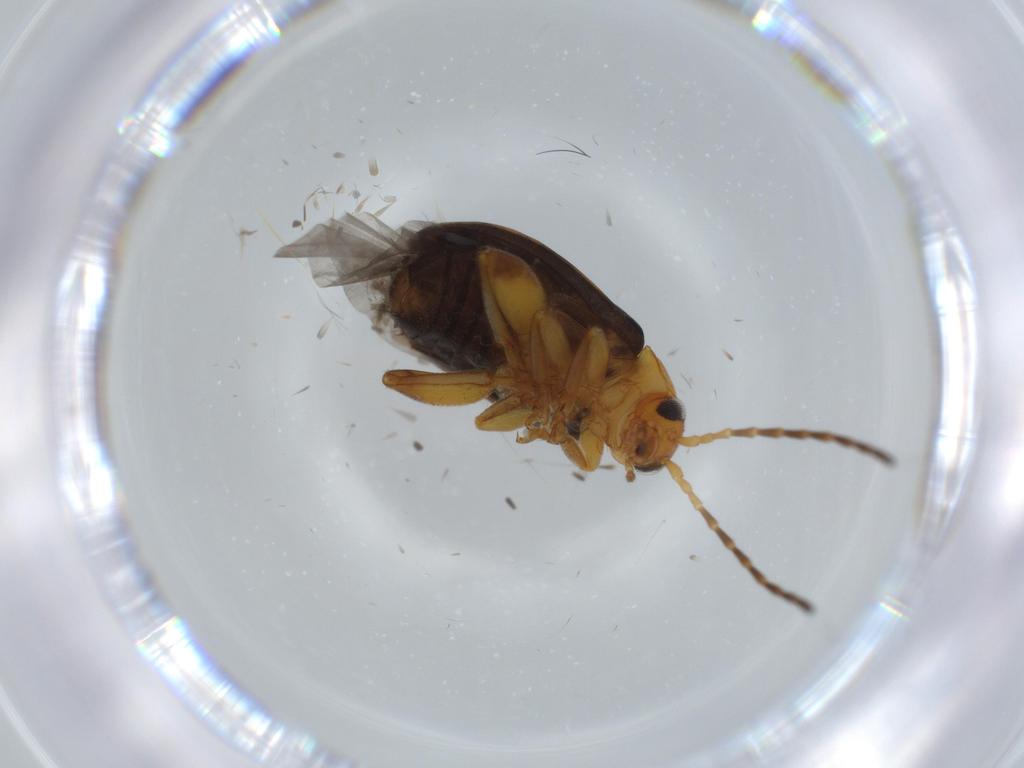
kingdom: Animalia
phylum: Arthropoda
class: Insecta
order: Coleoptera
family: Chrysomelidae
